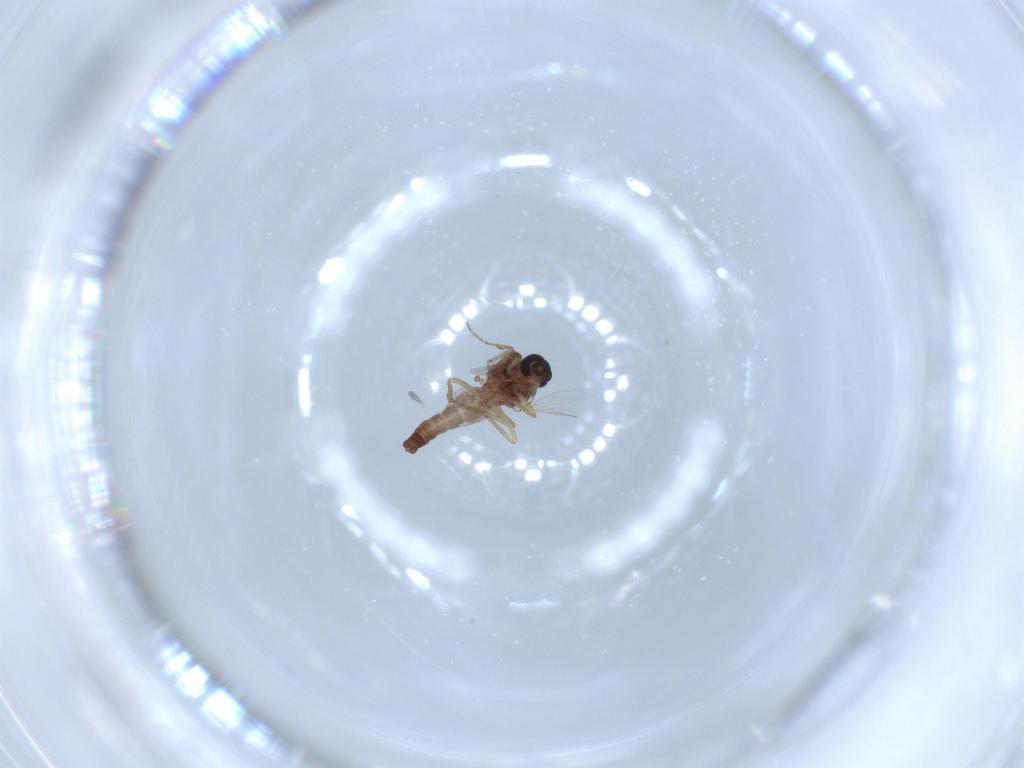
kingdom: Animalia
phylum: Arthropoda
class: Insecta
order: Diptera
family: Ceratopogonidae
